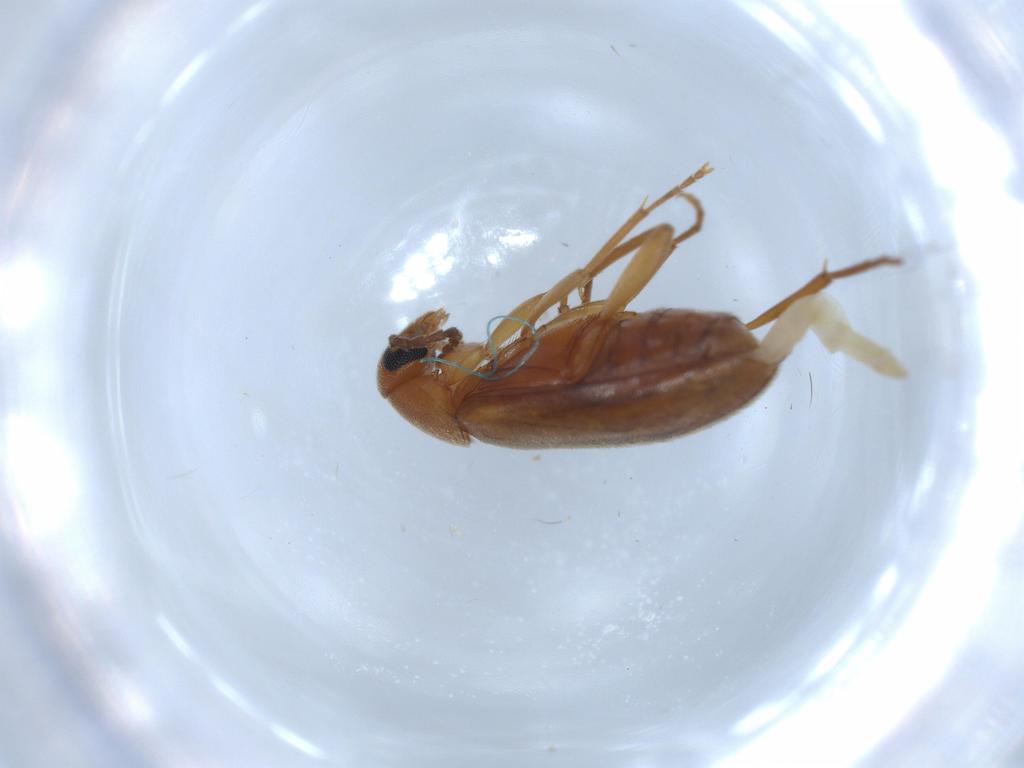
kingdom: Animalia
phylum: Arthropoda
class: Insecta
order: Coleoptera
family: Scraptiidae
